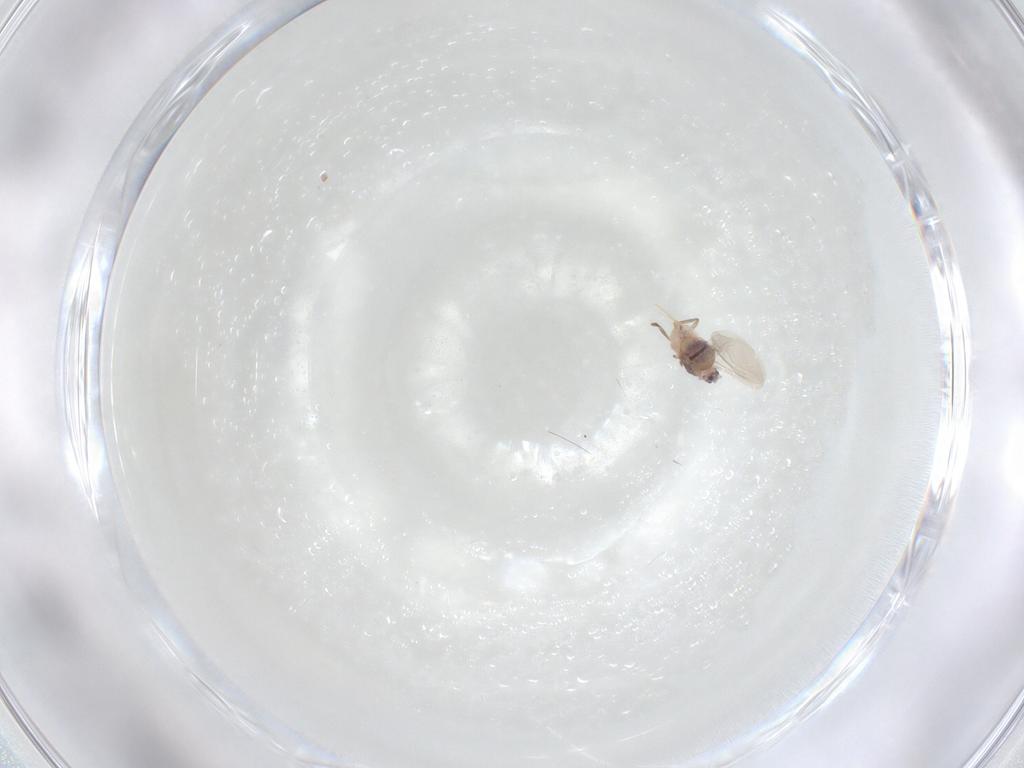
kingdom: Animalia
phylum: Arthropoda
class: Insecta
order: Hemiptera
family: Diaspididae
